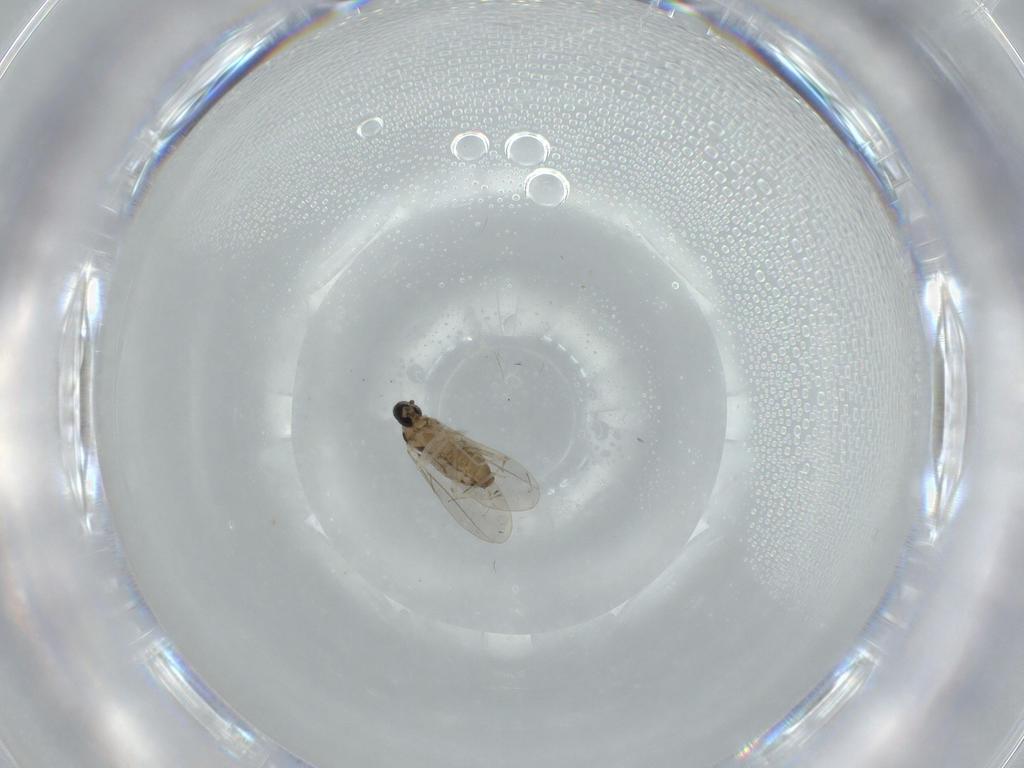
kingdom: Animalia
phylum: Arthropoda
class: Insecta
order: Diptera
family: Cecidomyiidae
